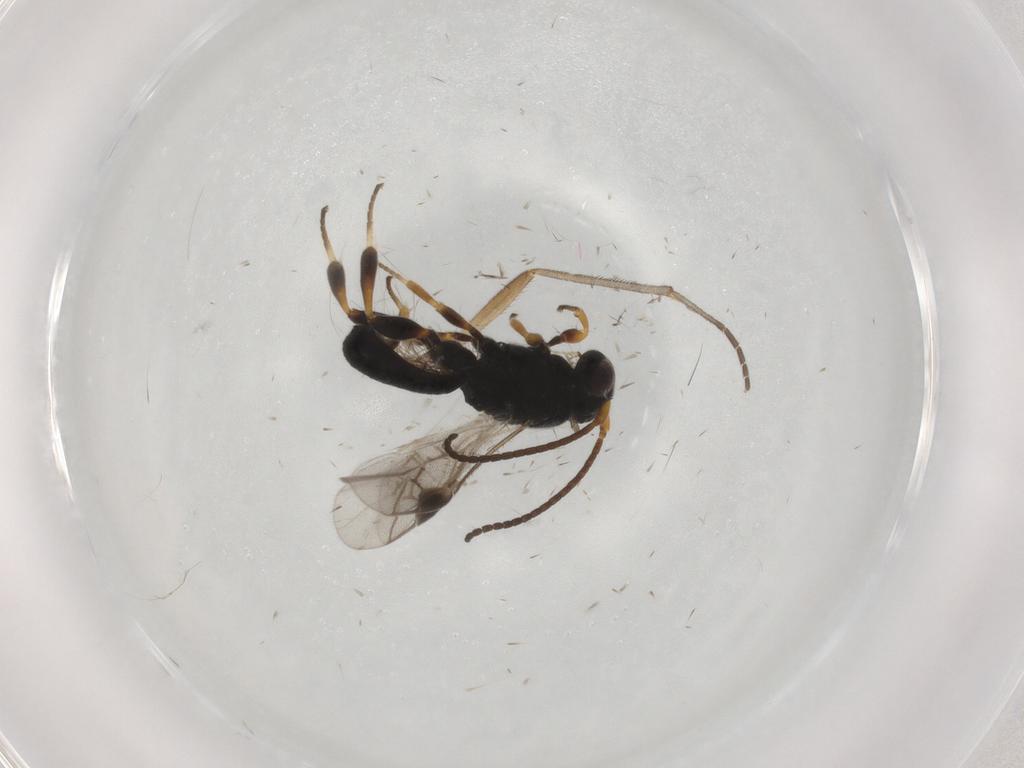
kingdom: Animalia
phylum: Arthropoda
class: Insecta
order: Hymenoptera
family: Braconidae
